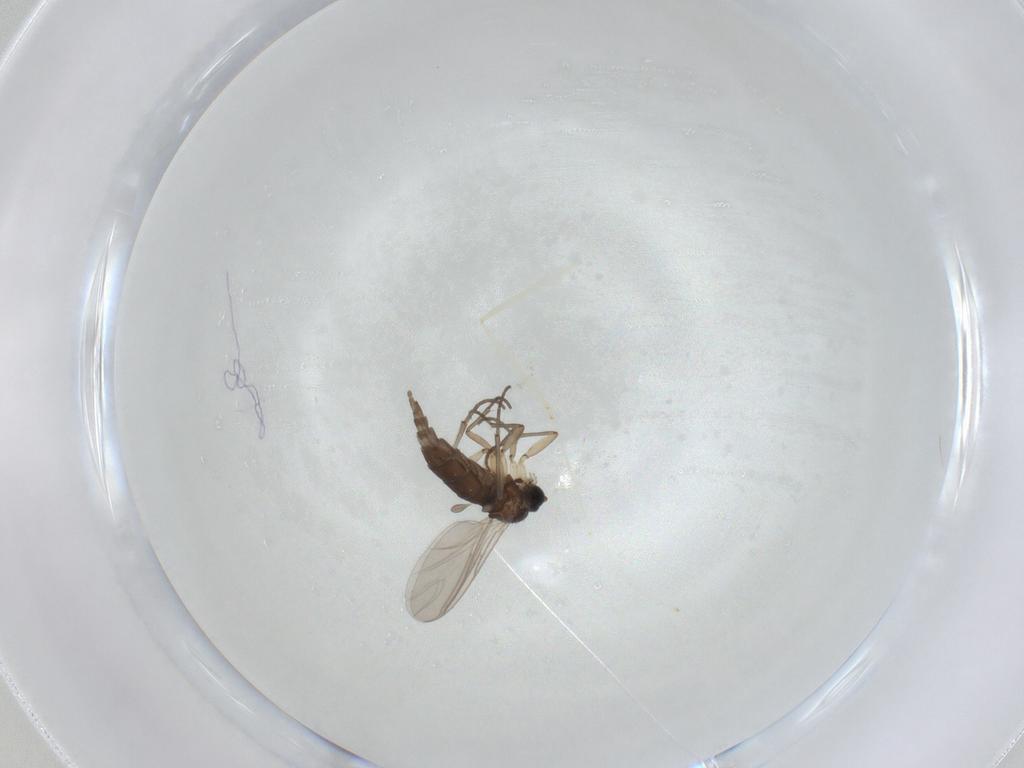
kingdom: Animalia
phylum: Arthropoda
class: Insecta
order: Diptera
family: Sciaridae
